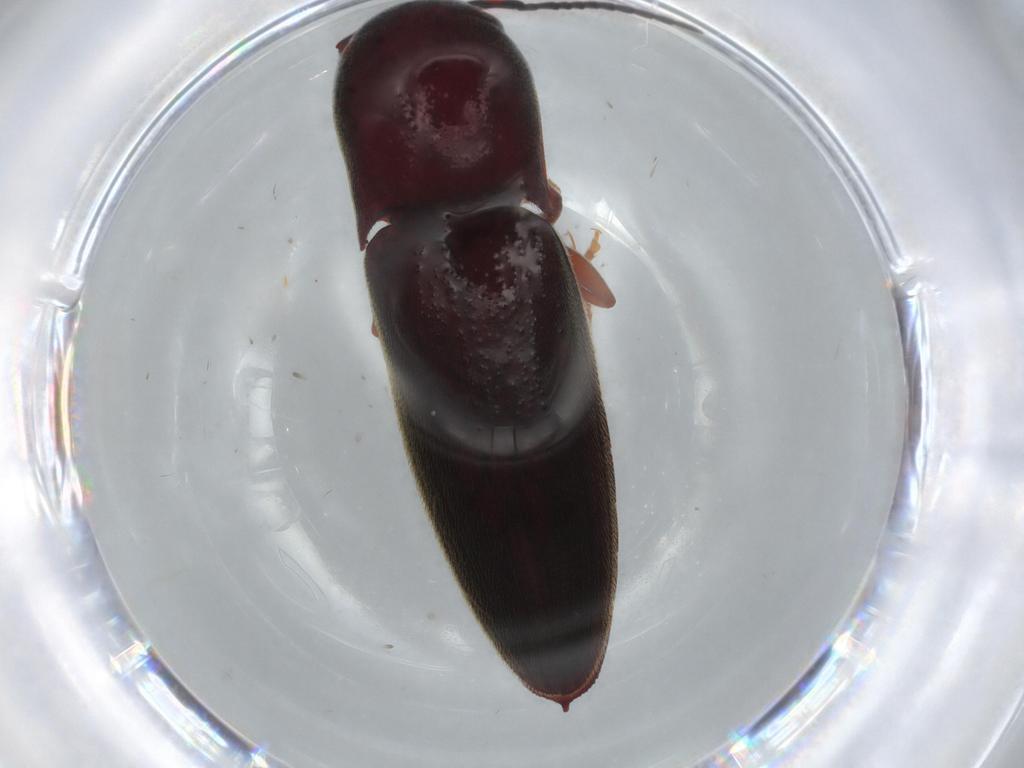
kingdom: Animalia
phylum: Arthropoda
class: Insecta
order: Coleoptera
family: Eucnemidae
